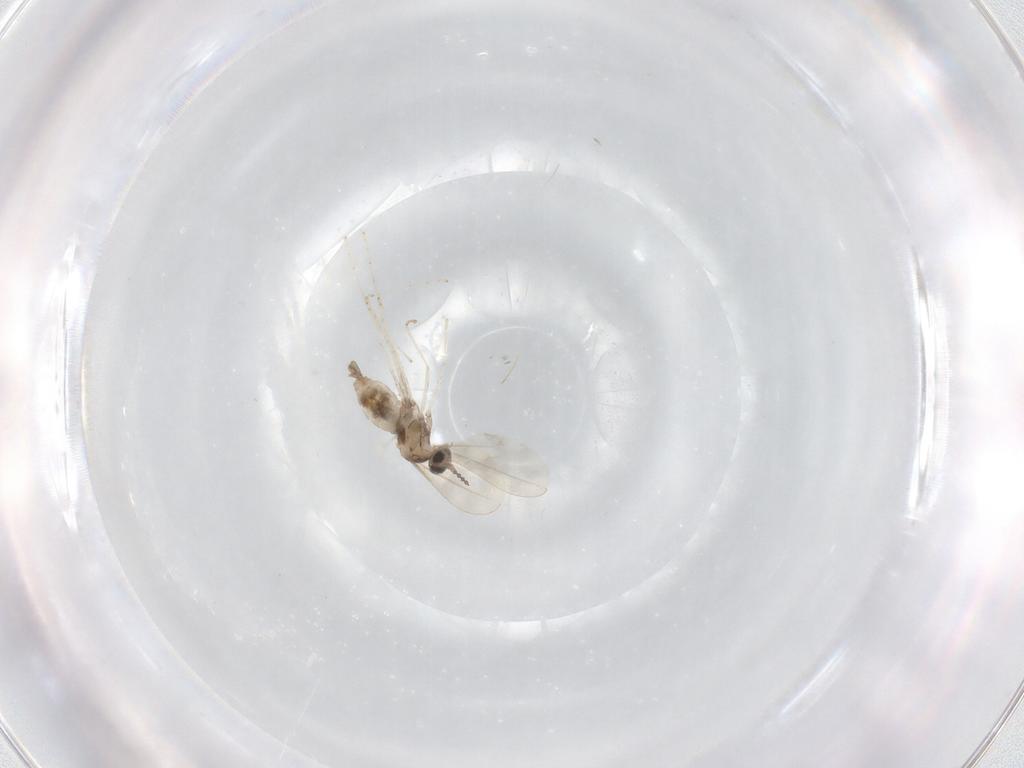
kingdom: Animalia
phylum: Arthropoda
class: Insecta
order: Diptera
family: Cecidomyiidae
